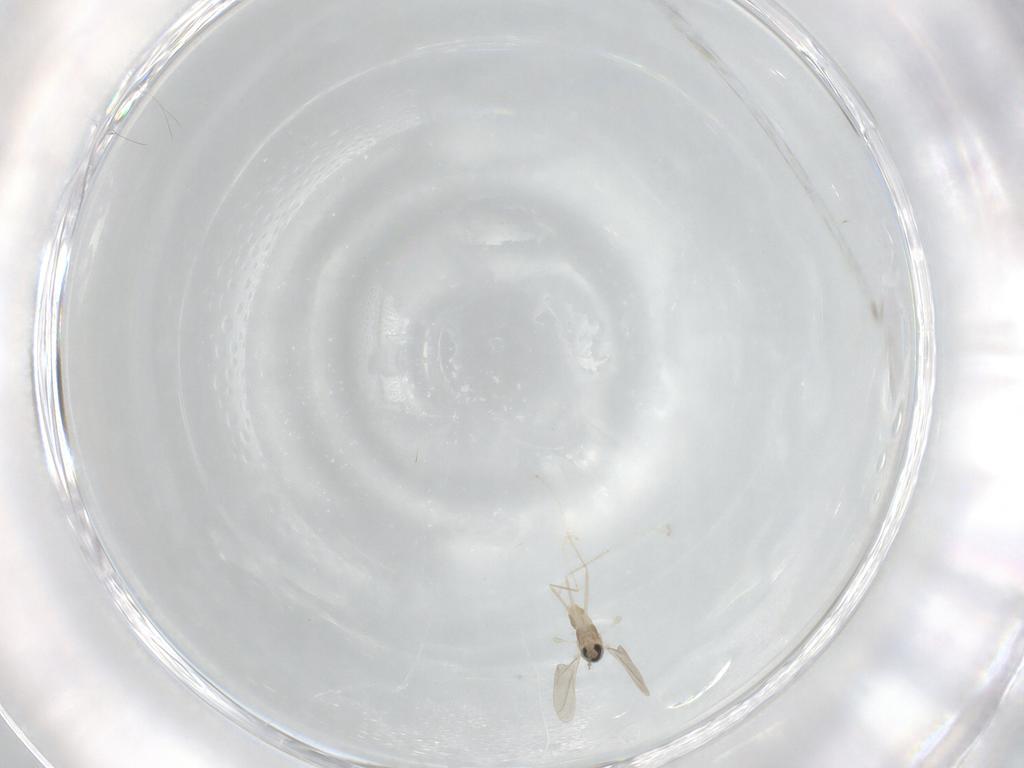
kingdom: Animalia
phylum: Arthropoda
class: Insecta
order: Diptera
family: Cecidomyiidae
